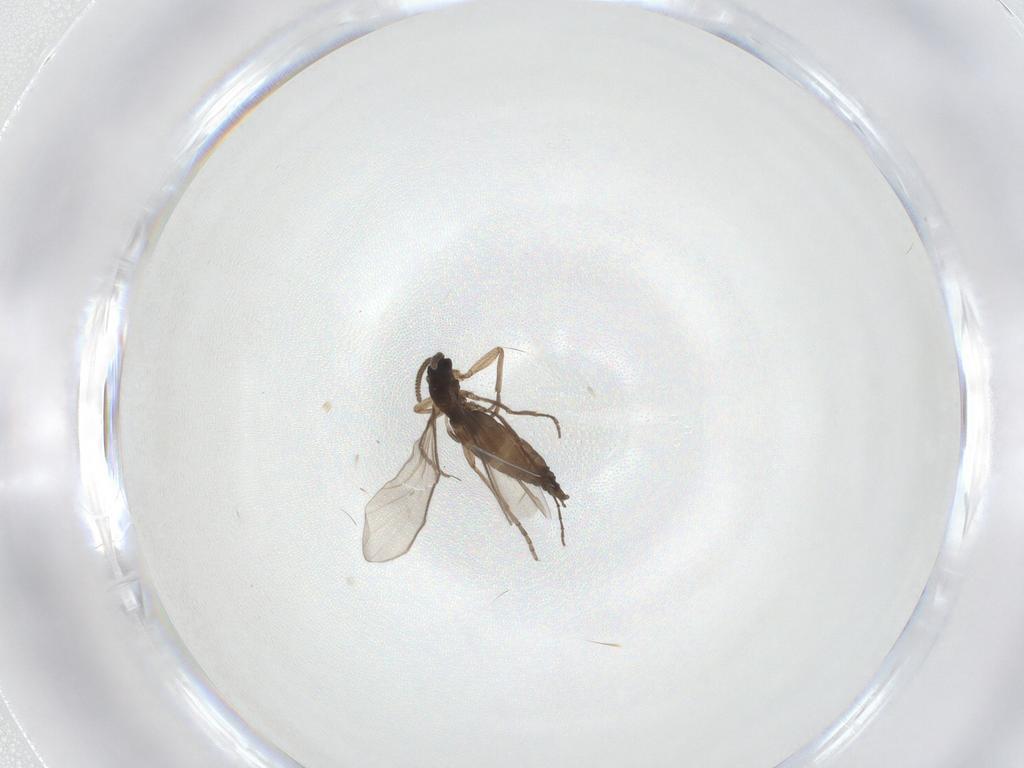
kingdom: Animalia
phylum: Arthropoda
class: Insecta
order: Diptera
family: Sciaridae
